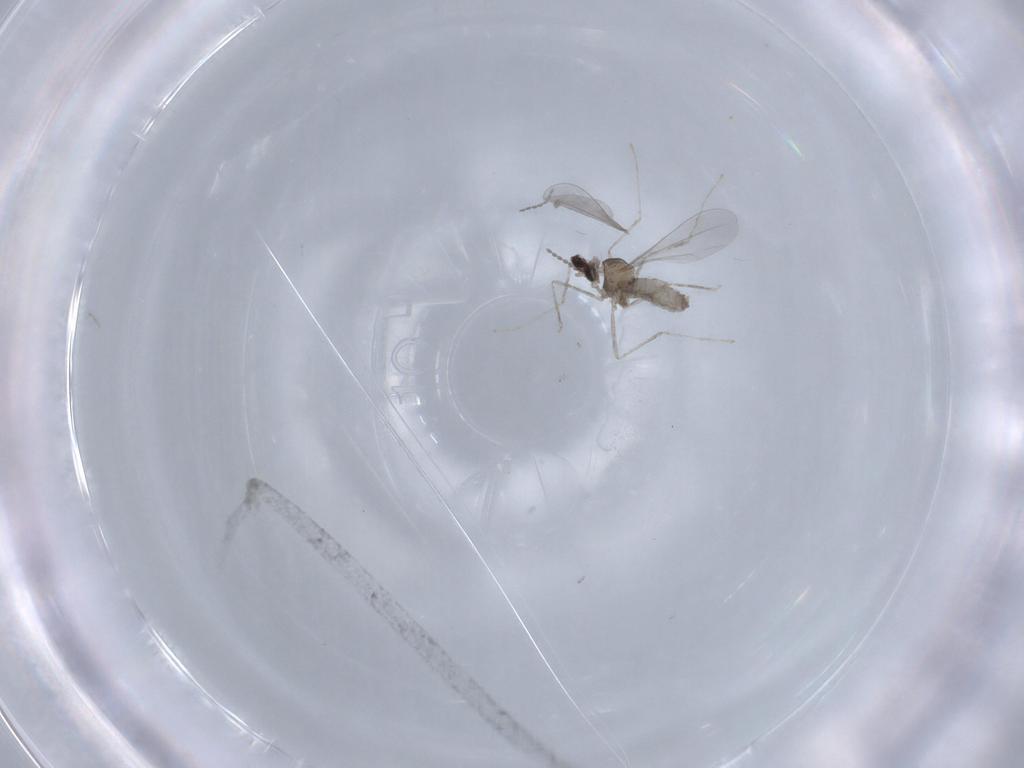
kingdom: Animalia
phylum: Arthropoda
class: Insecta
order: Diptera
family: Cecidomyiidae
